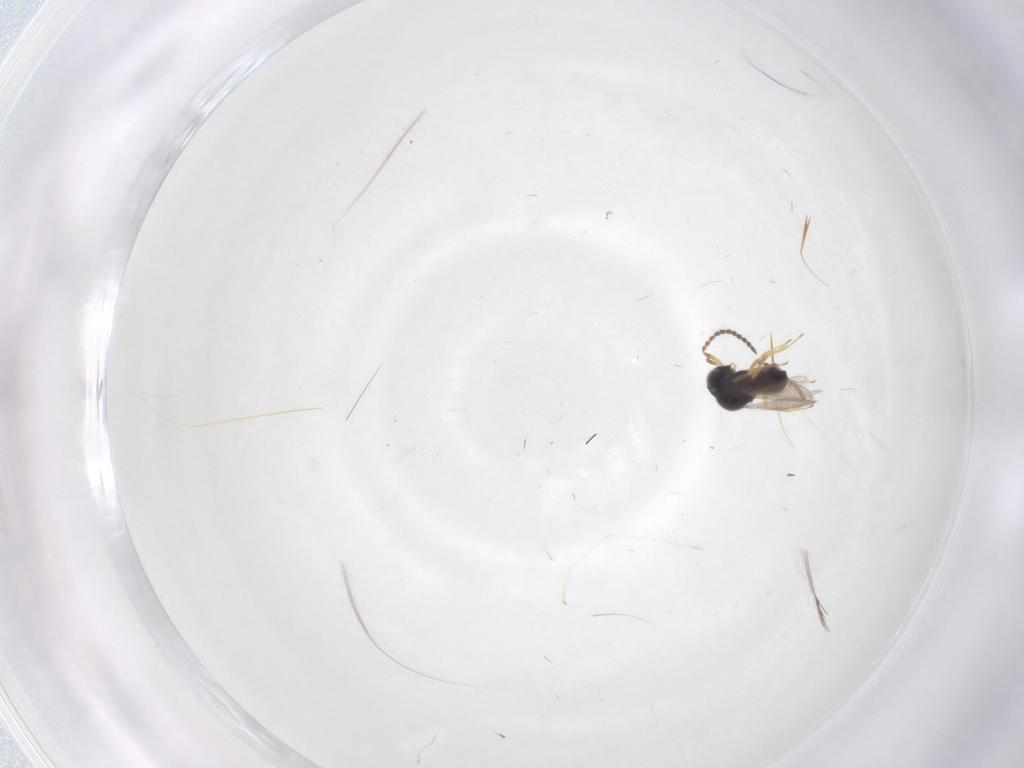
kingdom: Animalia
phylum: Arthropoda
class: Insecta
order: Hymenoptera
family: Scelionidae
